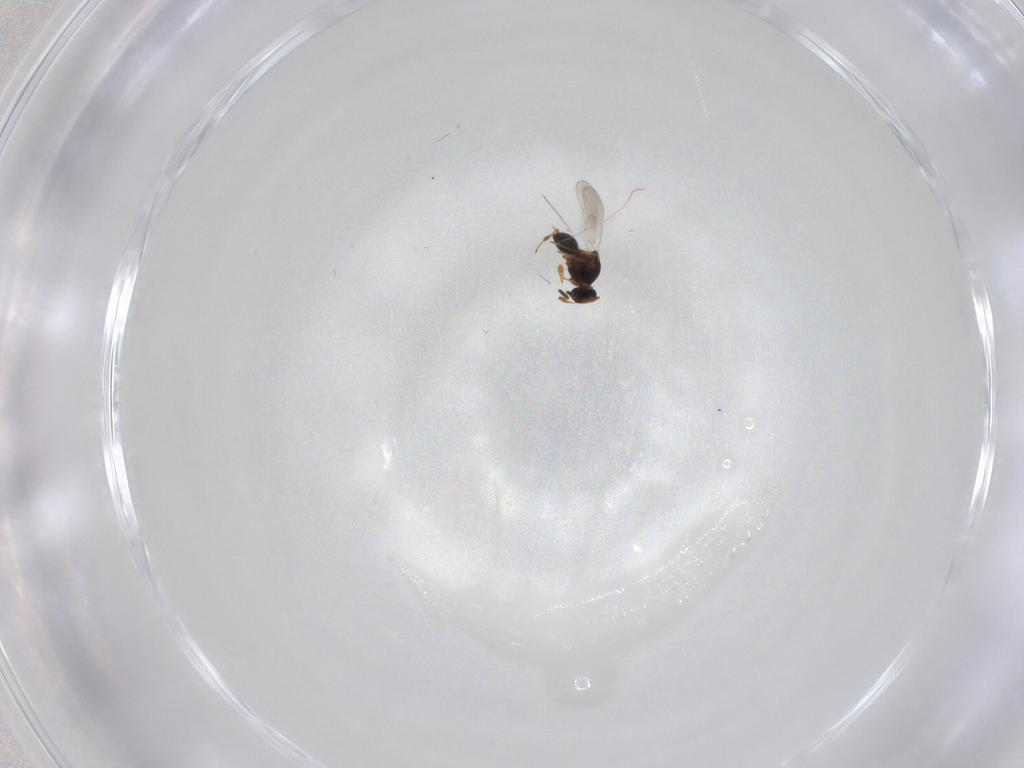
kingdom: Animalia
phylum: Arthropoda
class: Insecta
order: Hymenoptera
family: Platygastridae
